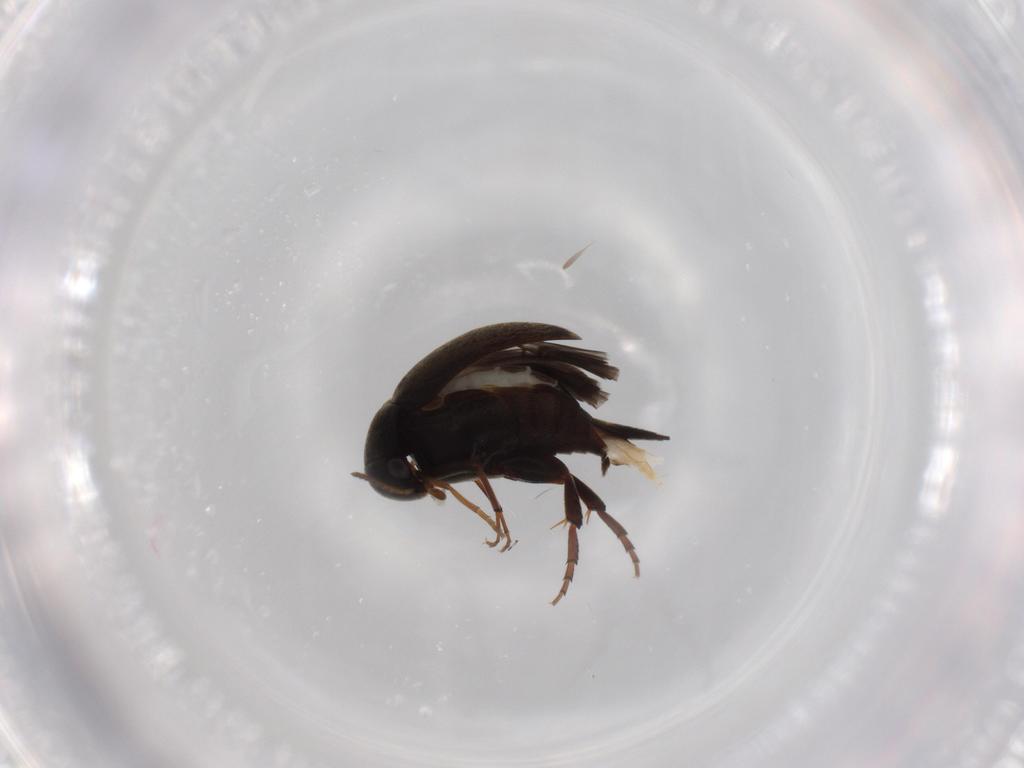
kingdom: Animalia
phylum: Arthropoda
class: Insecta
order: Coleoptera
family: Mordellidae
